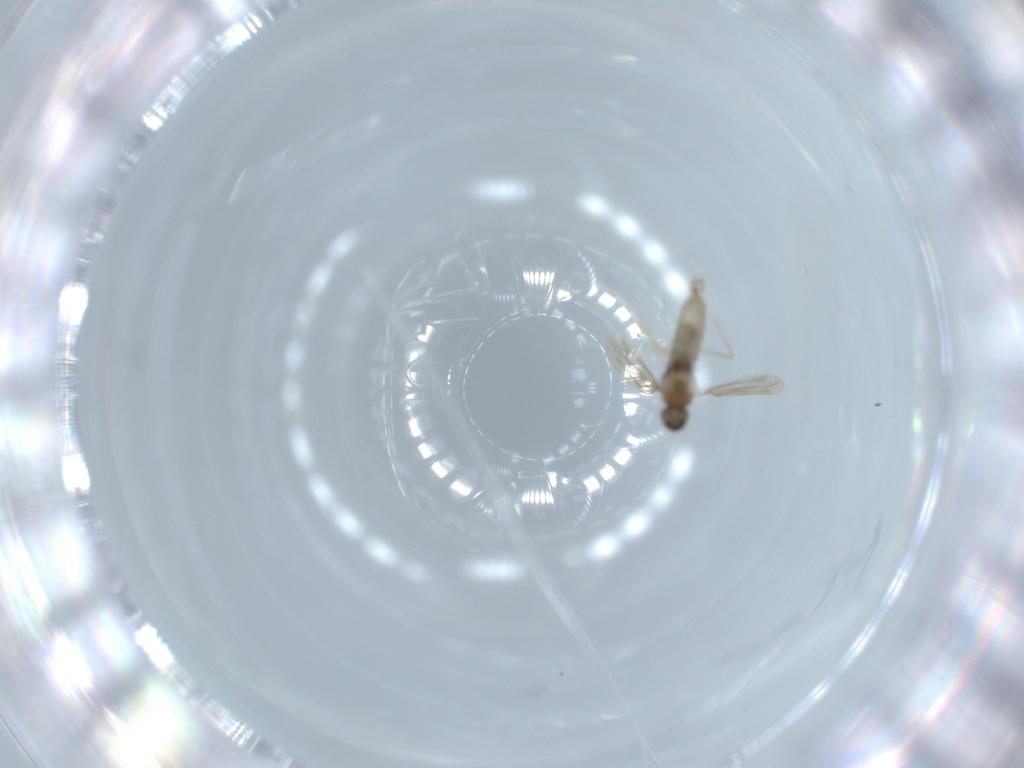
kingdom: Animalia
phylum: Arthropoda
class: Insecta
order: Diptera
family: Cecidomyiidae
